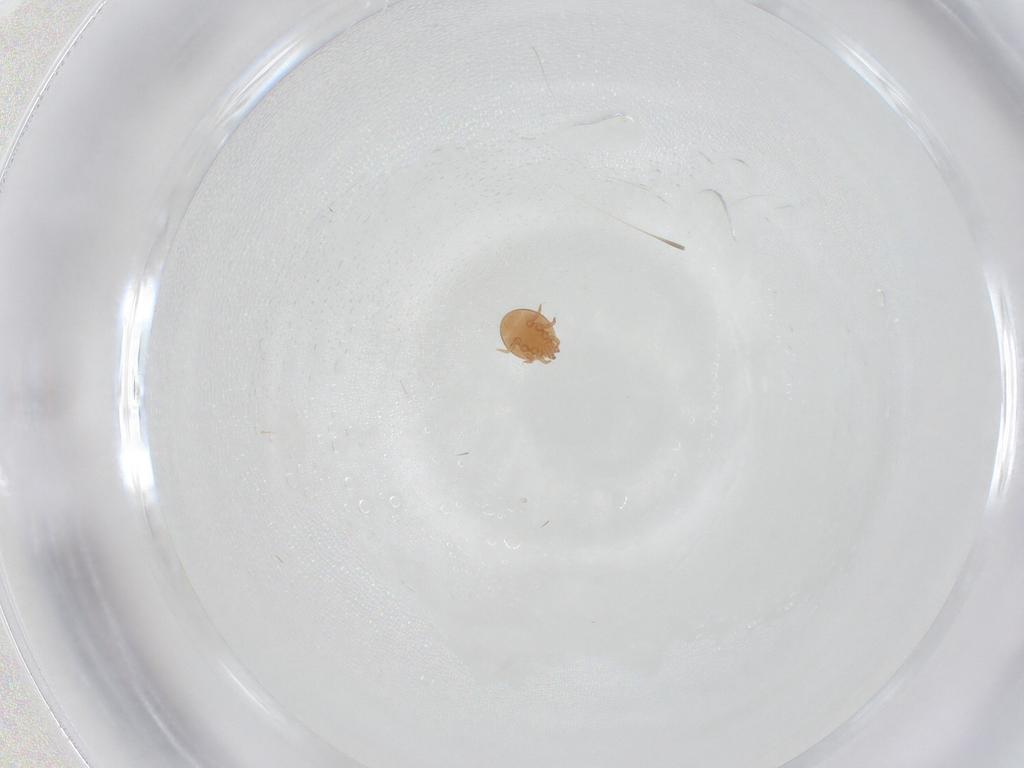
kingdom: Animalia
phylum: Arthropoda
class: Arachnida
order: Mesostigmata
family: Trematuridae
